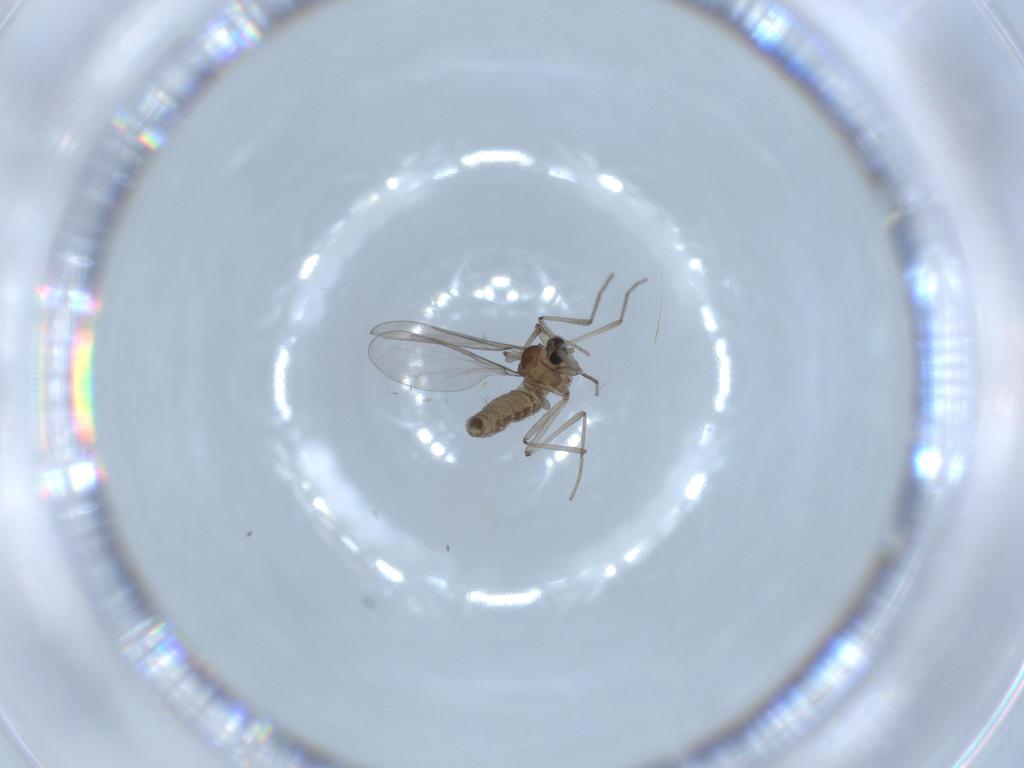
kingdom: Animalia
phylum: Arthropoda
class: Insecta
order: Diptera
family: Cecidomyiidae
